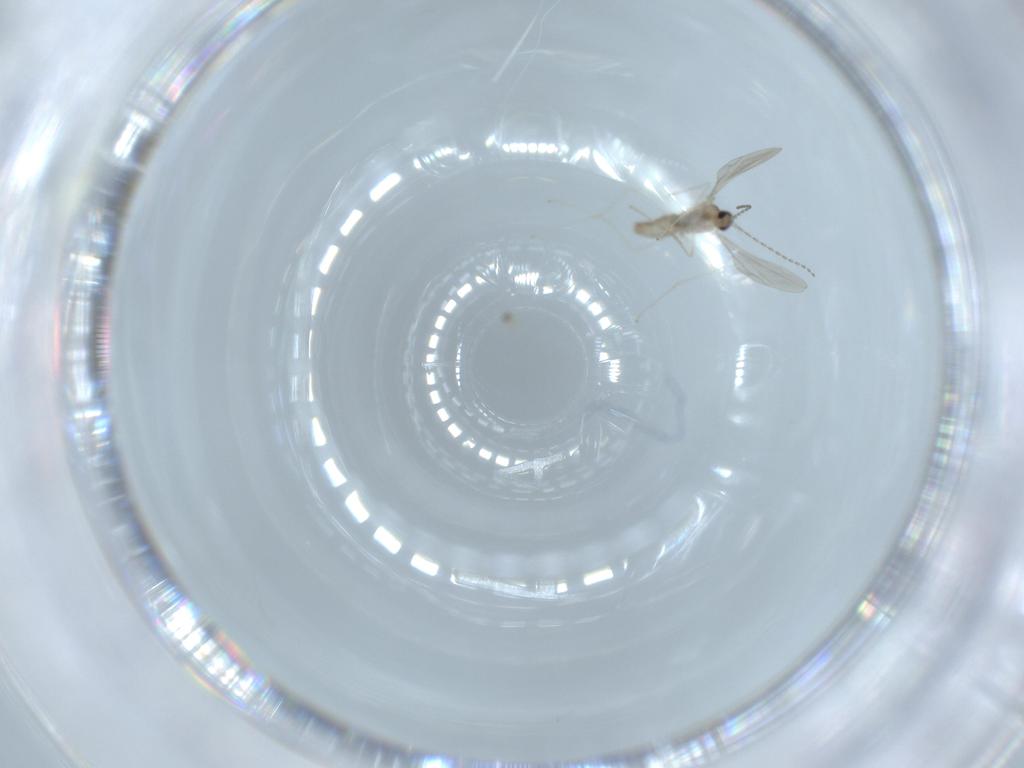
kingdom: Animalia
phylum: Arthropoda
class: Insecta
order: Diptera
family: Cecidomyiidae
